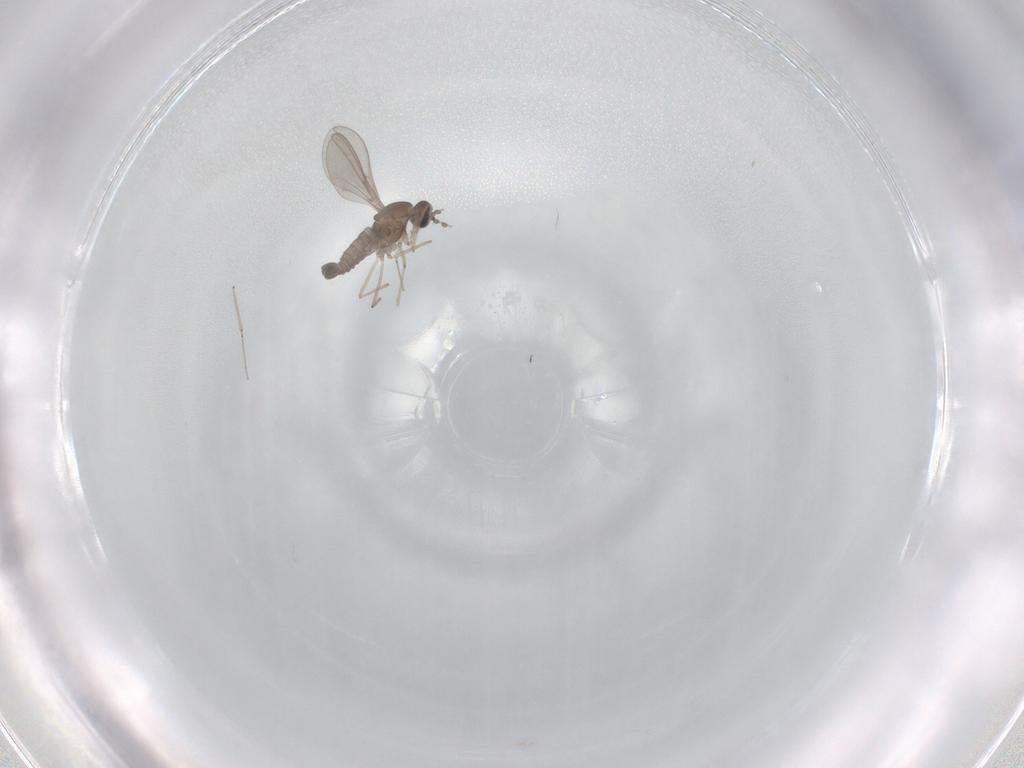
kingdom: Animalia
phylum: Arthropoda
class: Insecta
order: Diptera
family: Cecidomyiidae
